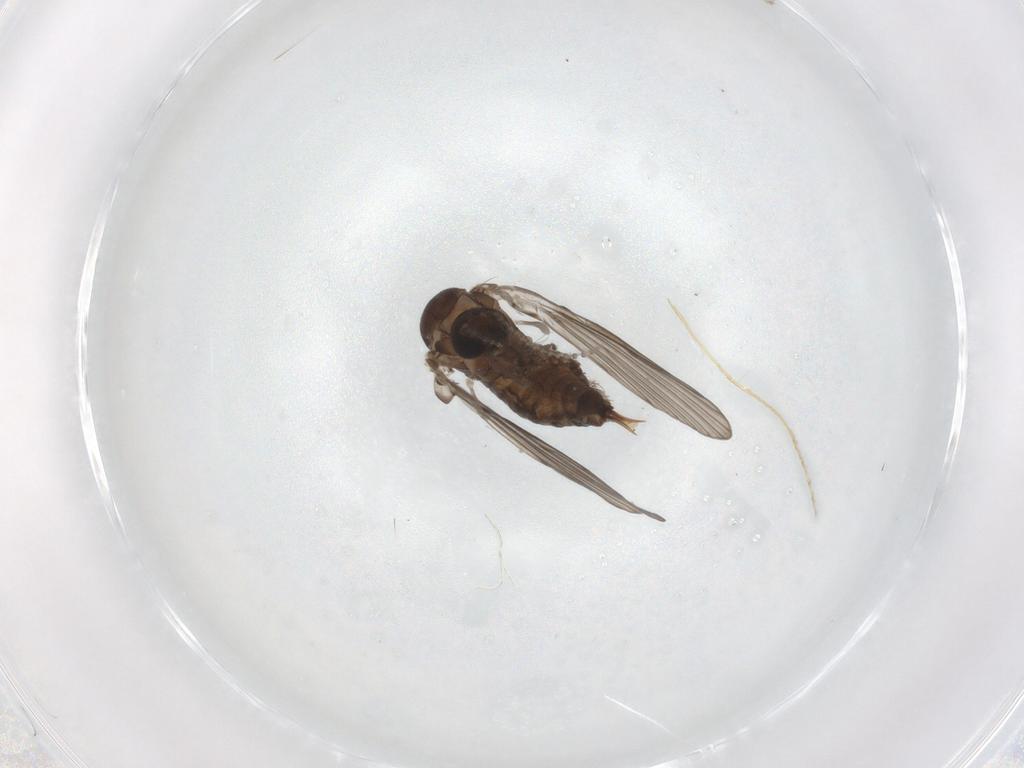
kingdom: Animalia
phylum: Arthropoda
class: Insecta
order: Diptera
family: Psychodidae
